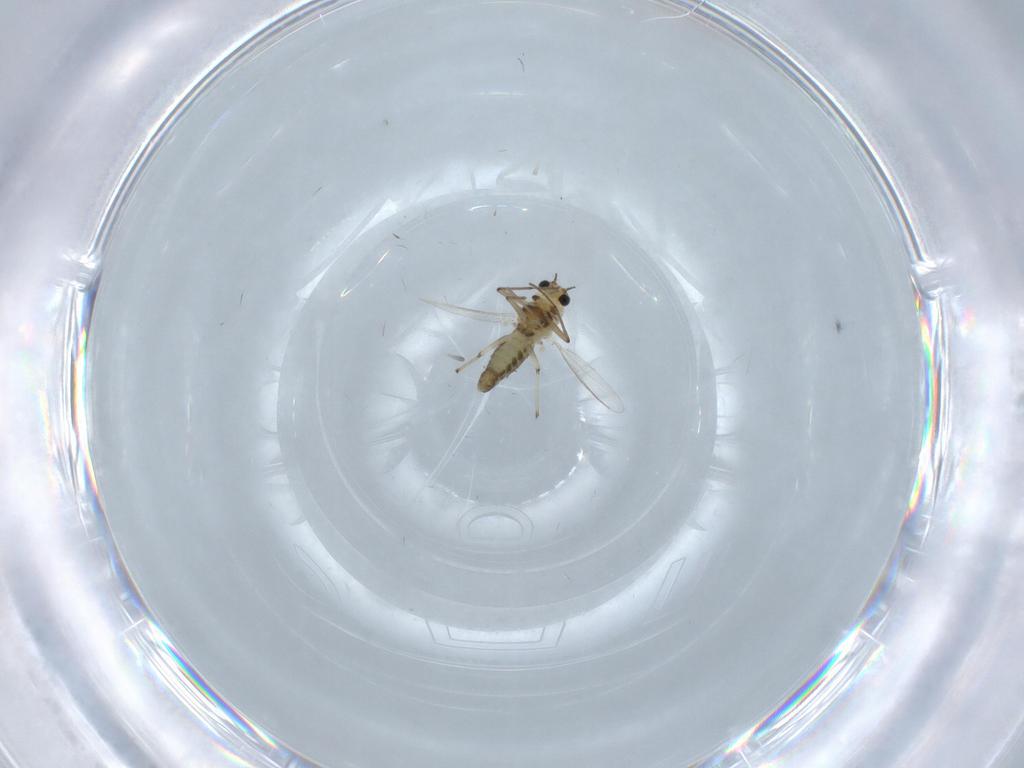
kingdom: Animalia
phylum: Arthropoda
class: Insecta
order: Diptera
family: Chironomidae
